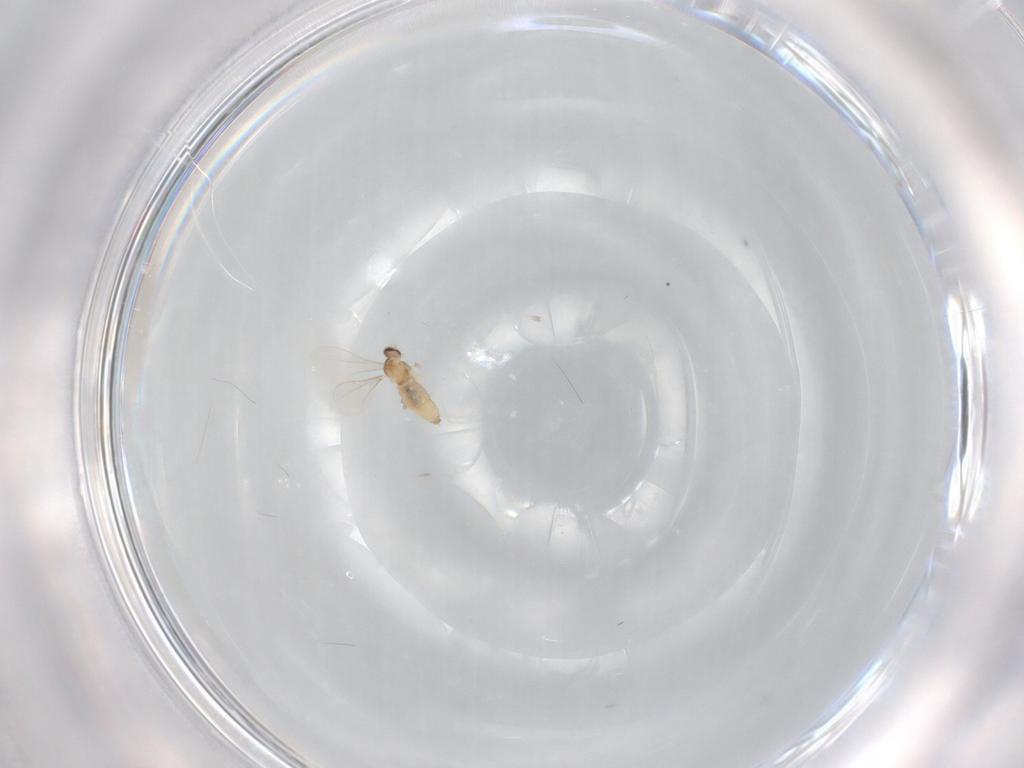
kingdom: Animalia
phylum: Arthropoda
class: Insecta
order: Diptera
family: Cecidomyiidae
